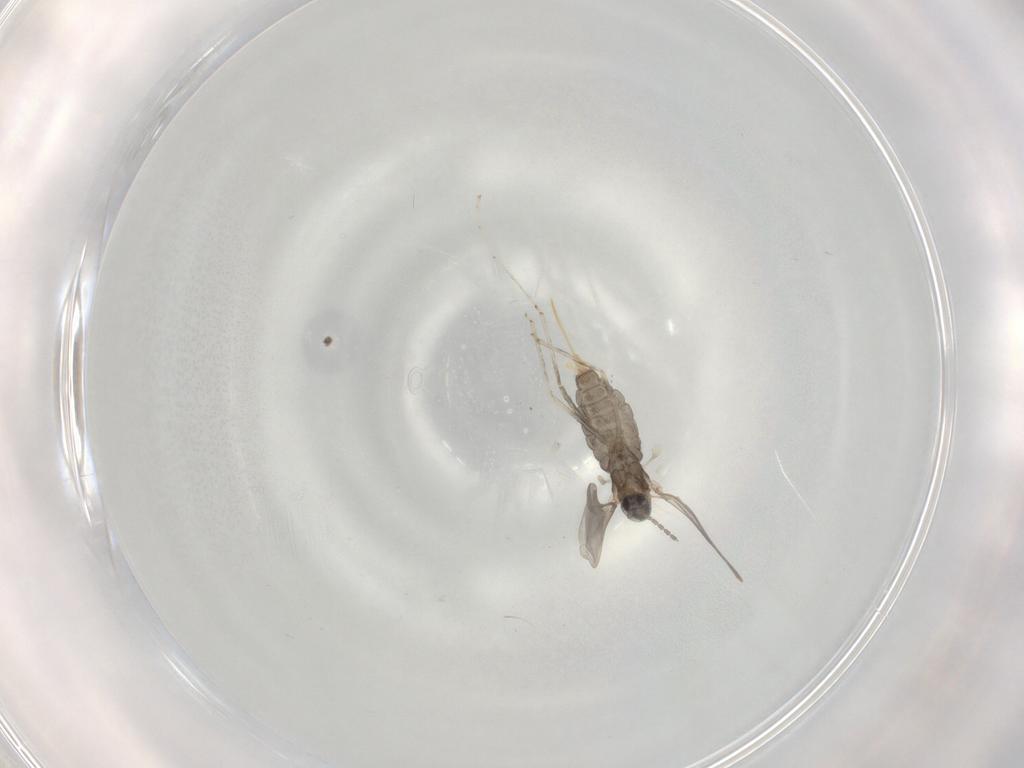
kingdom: Animalia
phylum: Arthropoda
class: Insecta
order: Diptera
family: Cecidomyiidae
